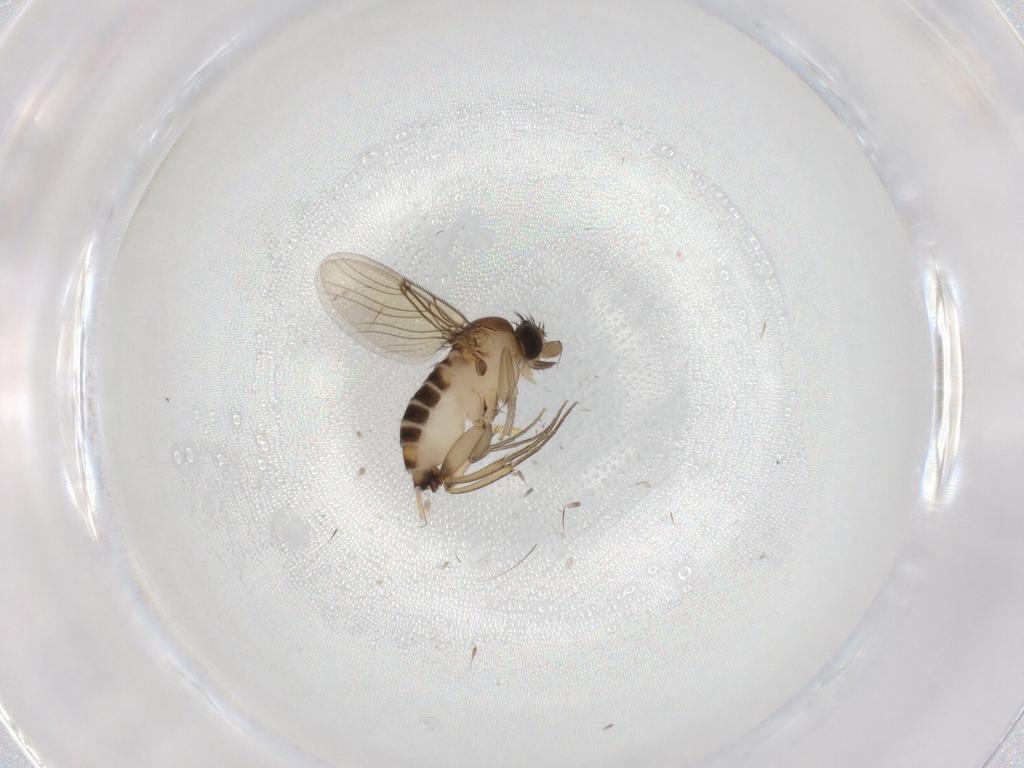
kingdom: Animalia
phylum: Arthropoda
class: Insecta
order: Diptera
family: Phoridae
